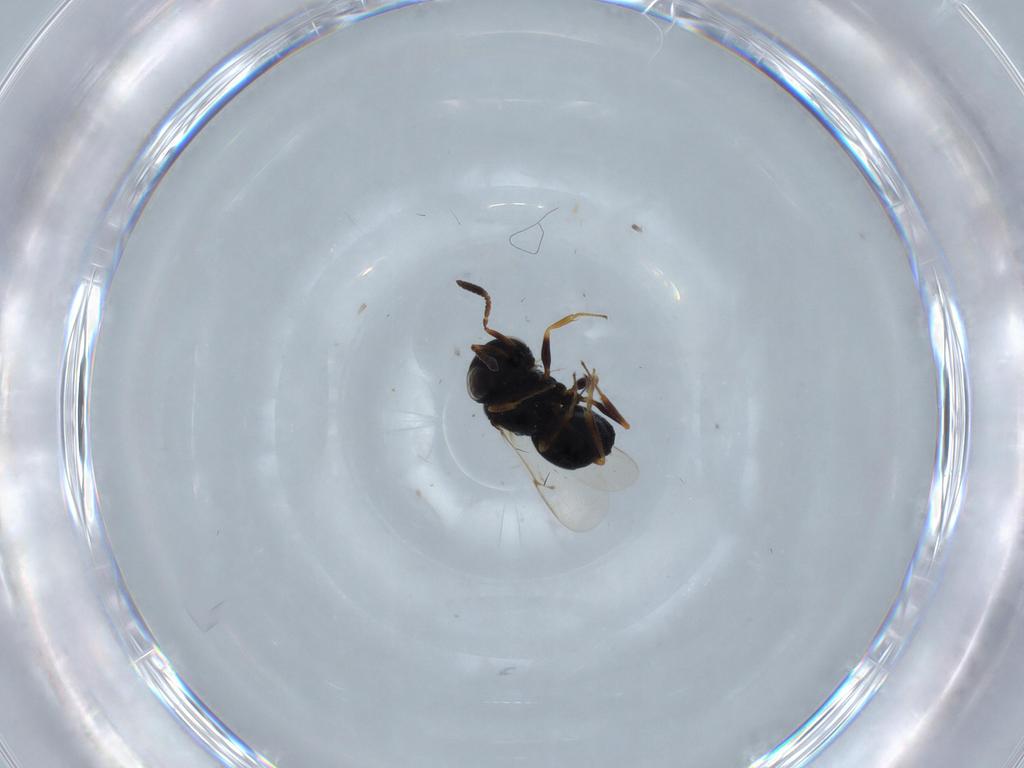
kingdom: Animalia
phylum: Arthropoda
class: Insecta
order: Hymenoptera
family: Scelionidae
